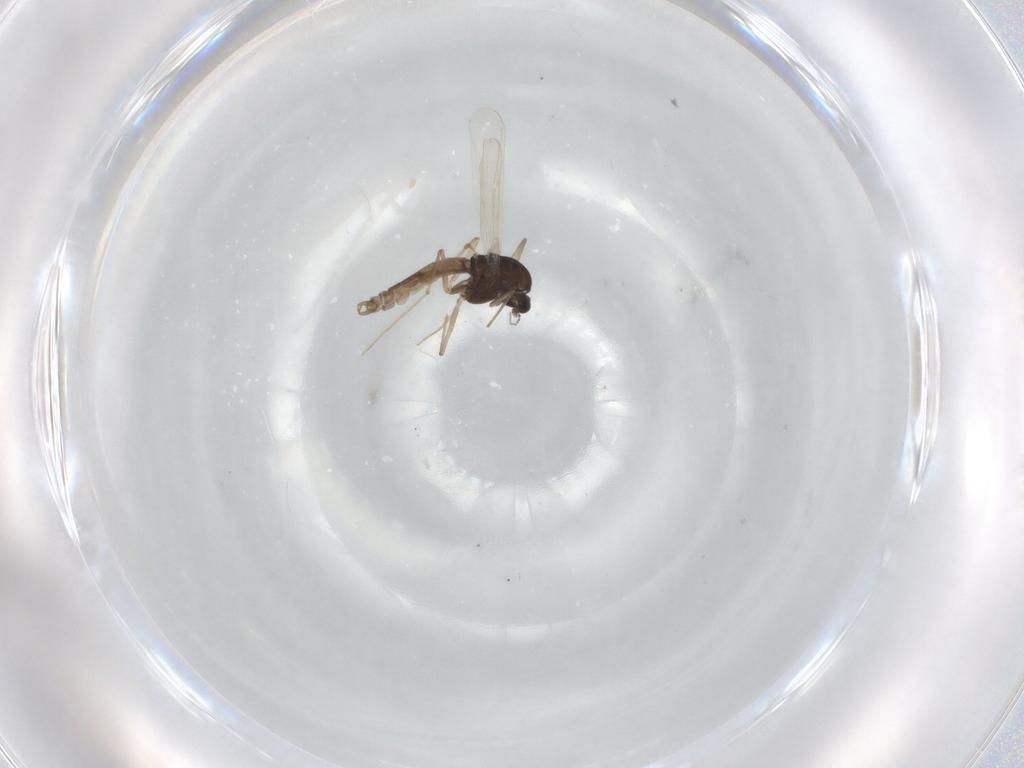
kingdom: Animalia
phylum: Arthropoda
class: Insecta
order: Diptera
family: Chironomidae
